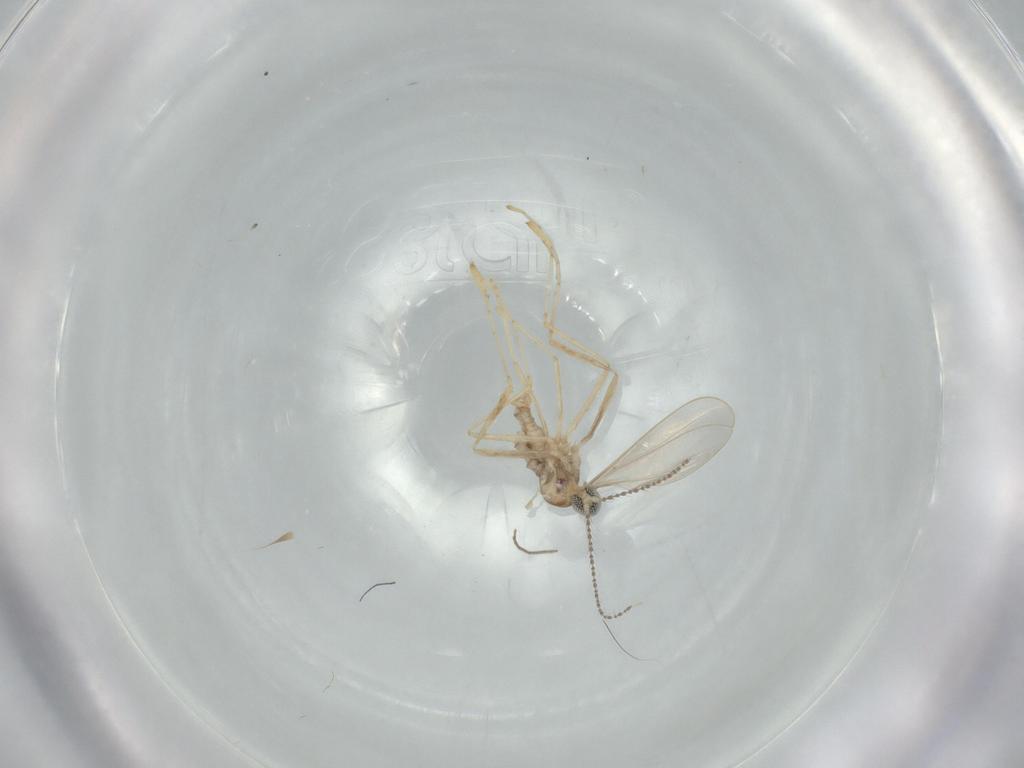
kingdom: Animalia
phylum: Arthropoda
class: Insecta
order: Diptera
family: Cecidomyiidae
